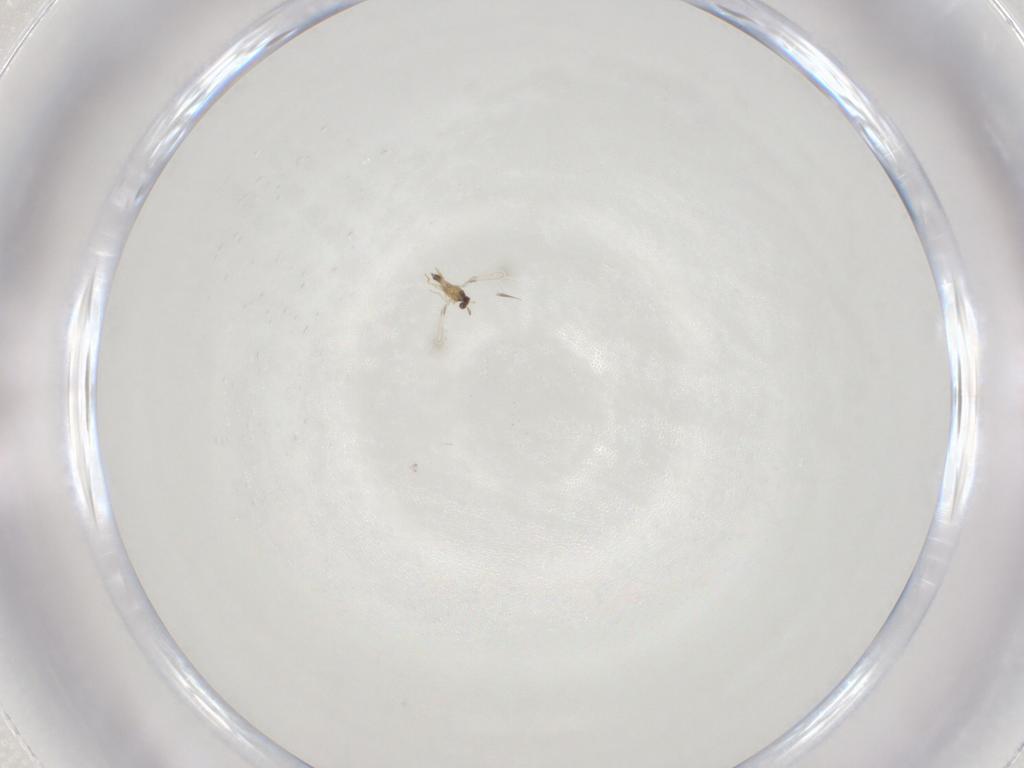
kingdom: Animalia
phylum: Arthropoda
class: Insecta
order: Hymenoptera
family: Mymaridae
